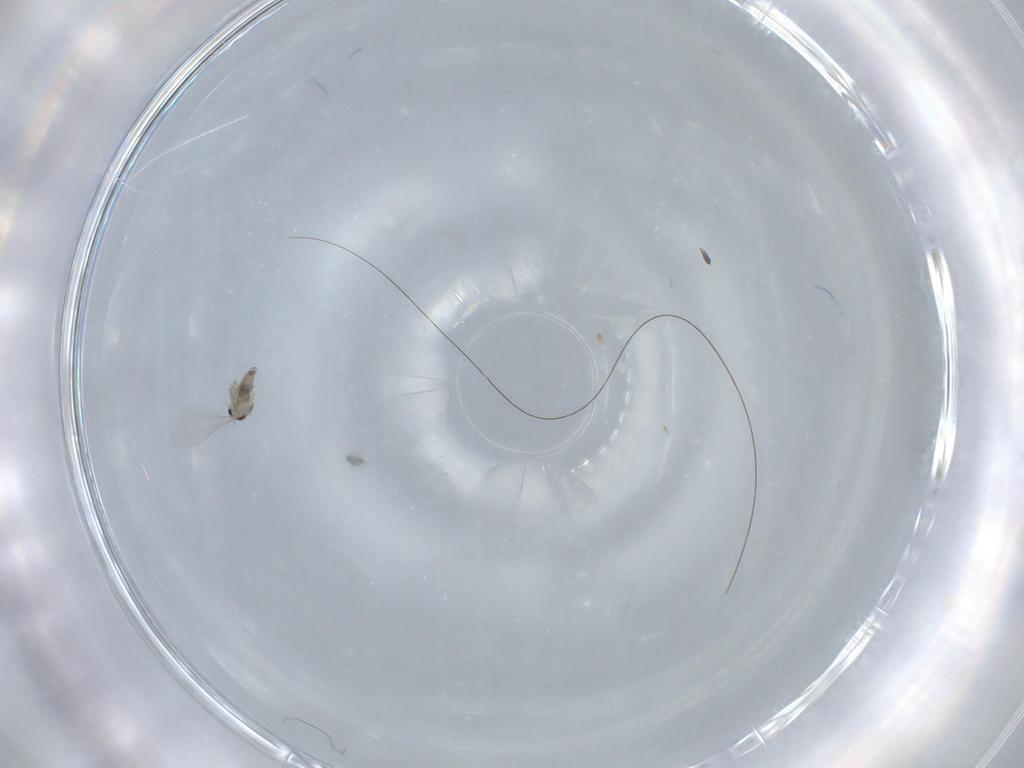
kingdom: Animalia
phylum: Arthropoda
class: Insecta
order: Diptera
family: Cecidomyiidae
